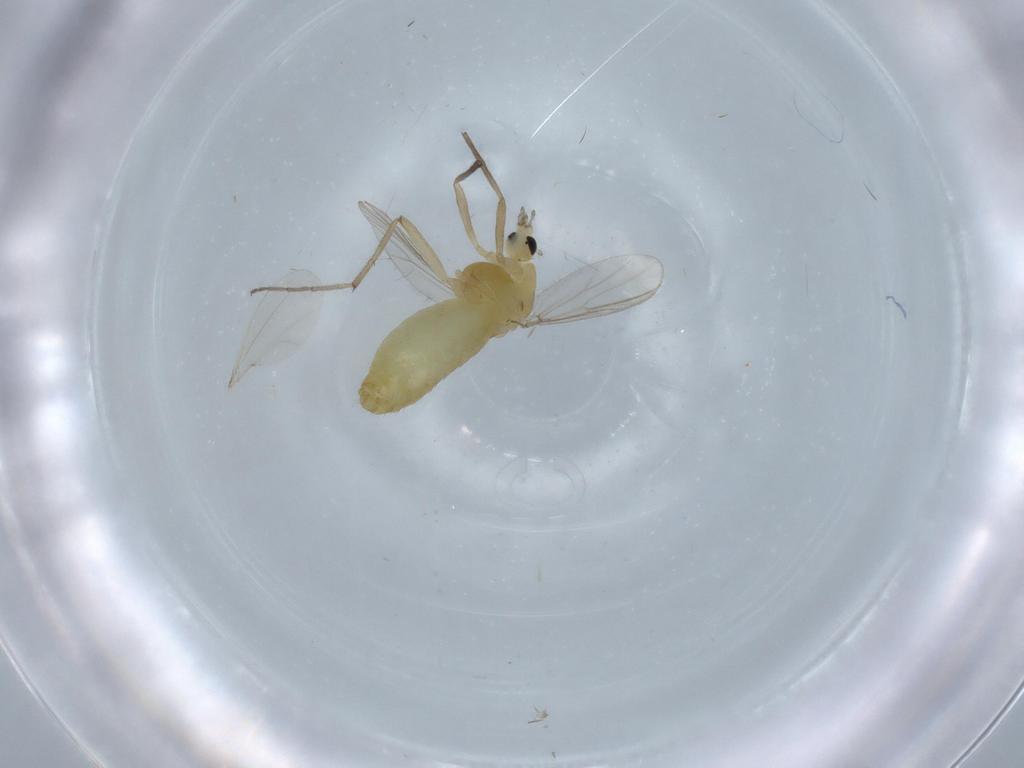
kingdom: Animalia
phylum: Arthropoda
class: Insecta
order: Diptera
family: Chironomidae
